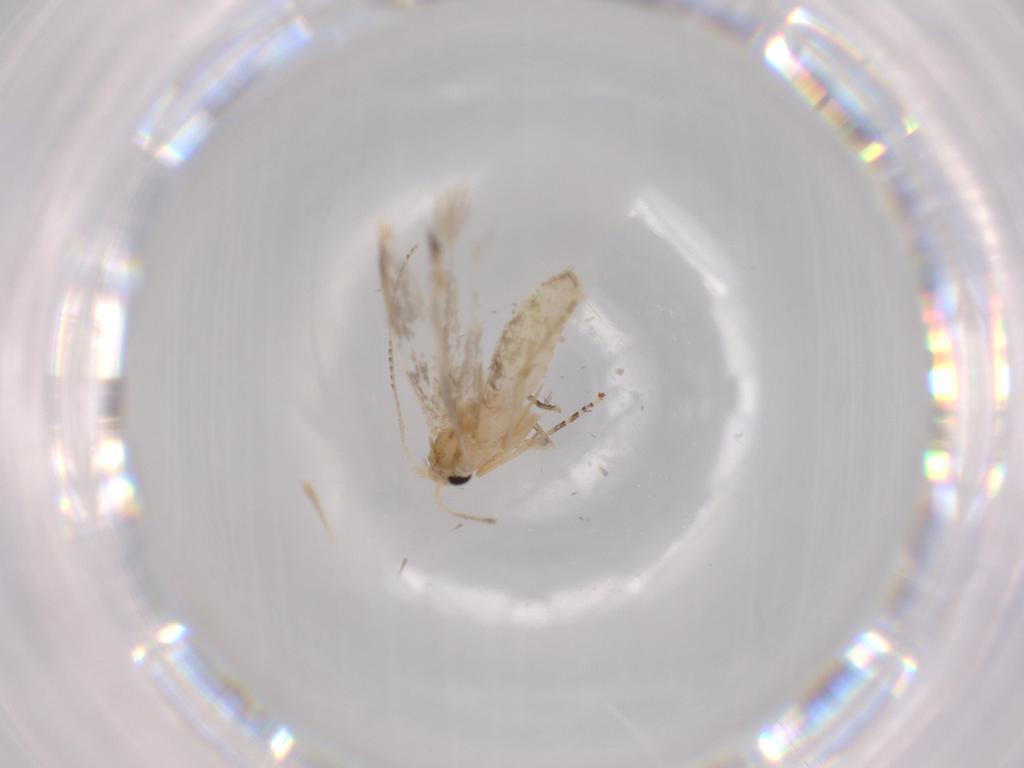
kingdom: Animalia
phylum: Arthropoda
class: Insecta
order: Lepidoptera
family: Bucculatricidae
